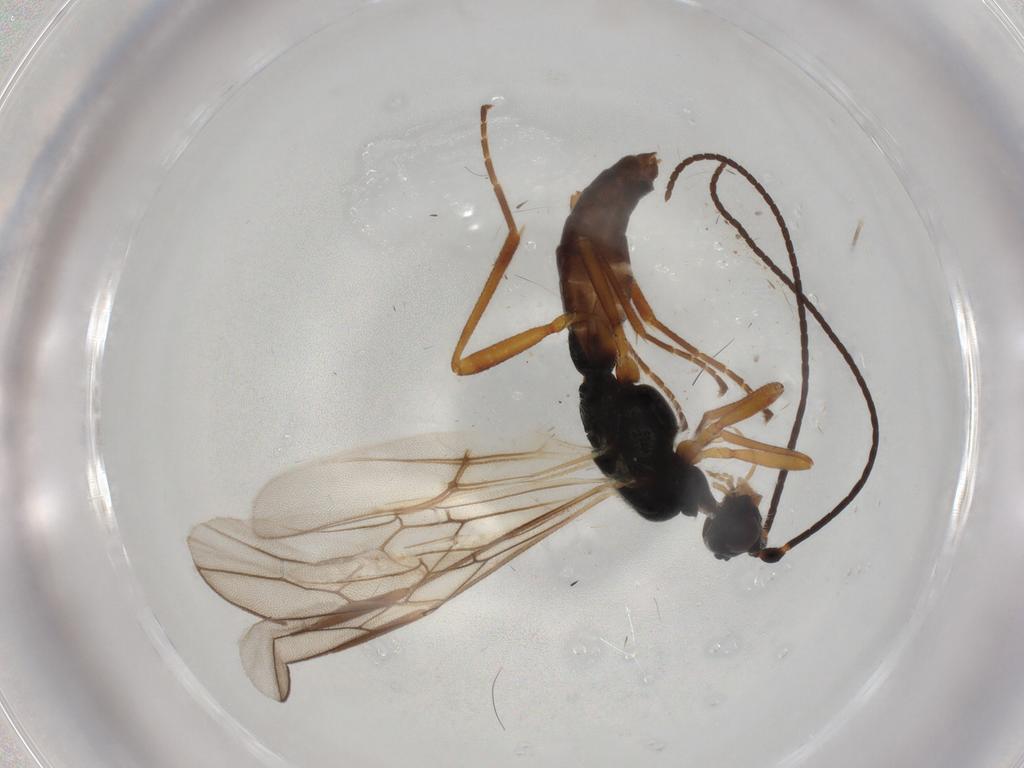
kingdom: Animalia
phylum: Arthropoda
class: Insecta
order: Hymenoptera
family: Braconidae
